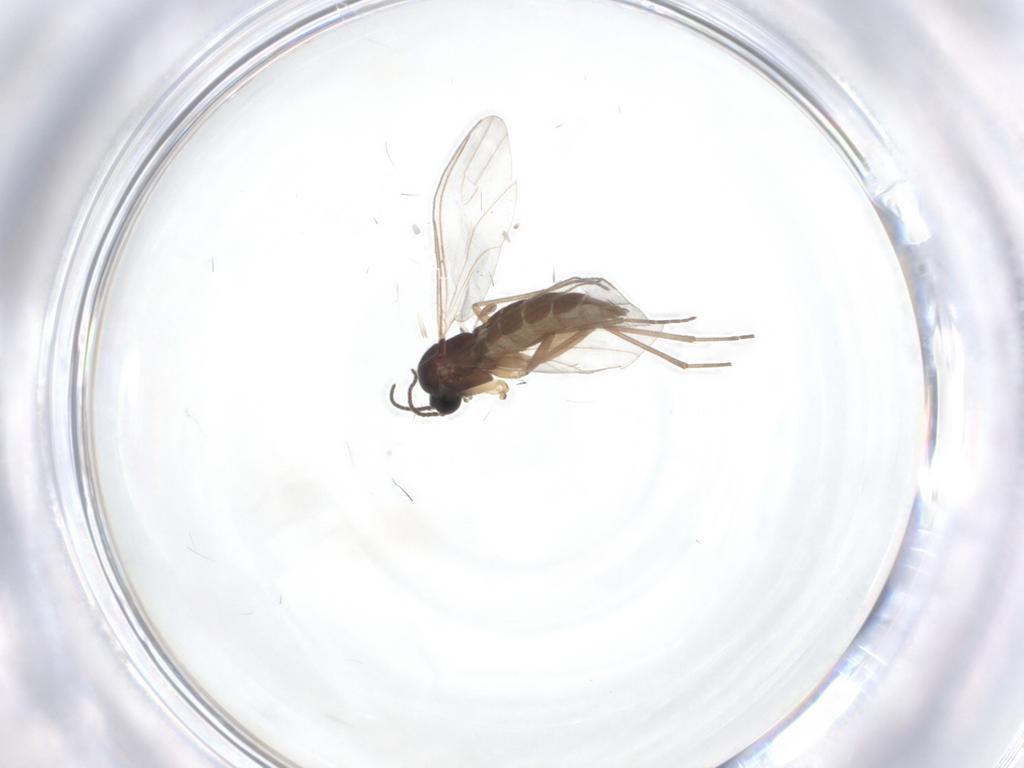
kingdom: Animalia
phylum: Arthropoda
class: Insecta
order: Diptera
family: Sciaridae
